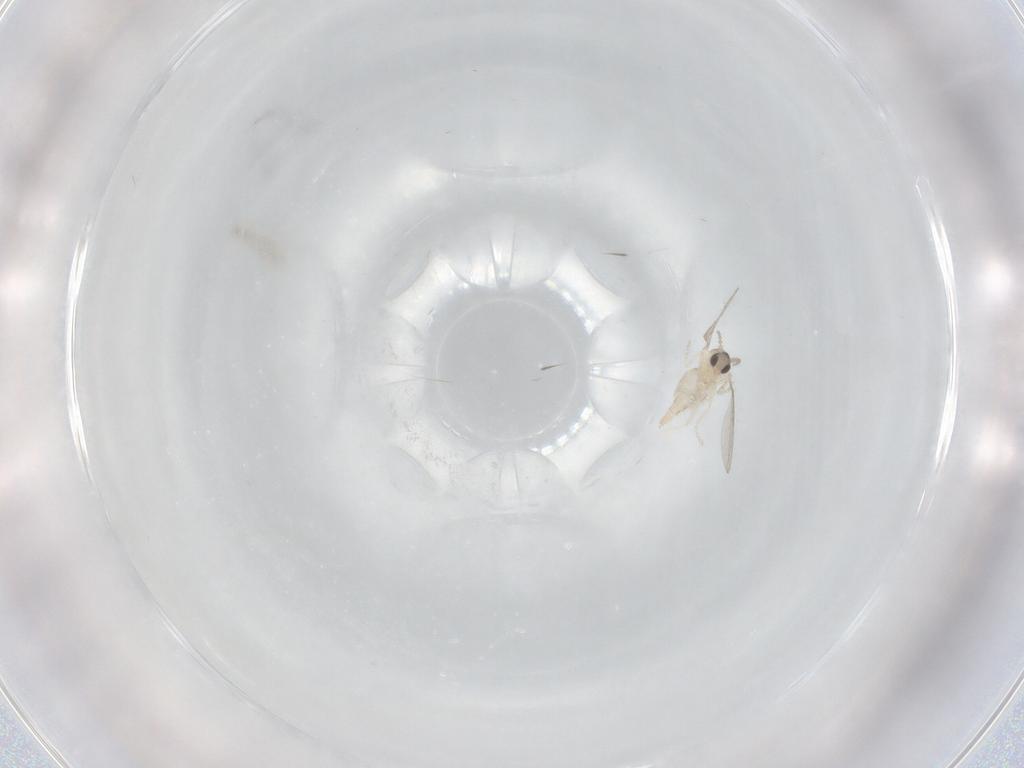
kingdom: Animalia
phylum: Arthropoda
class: Insecta
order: Diptera
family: Cecidomyiidae
